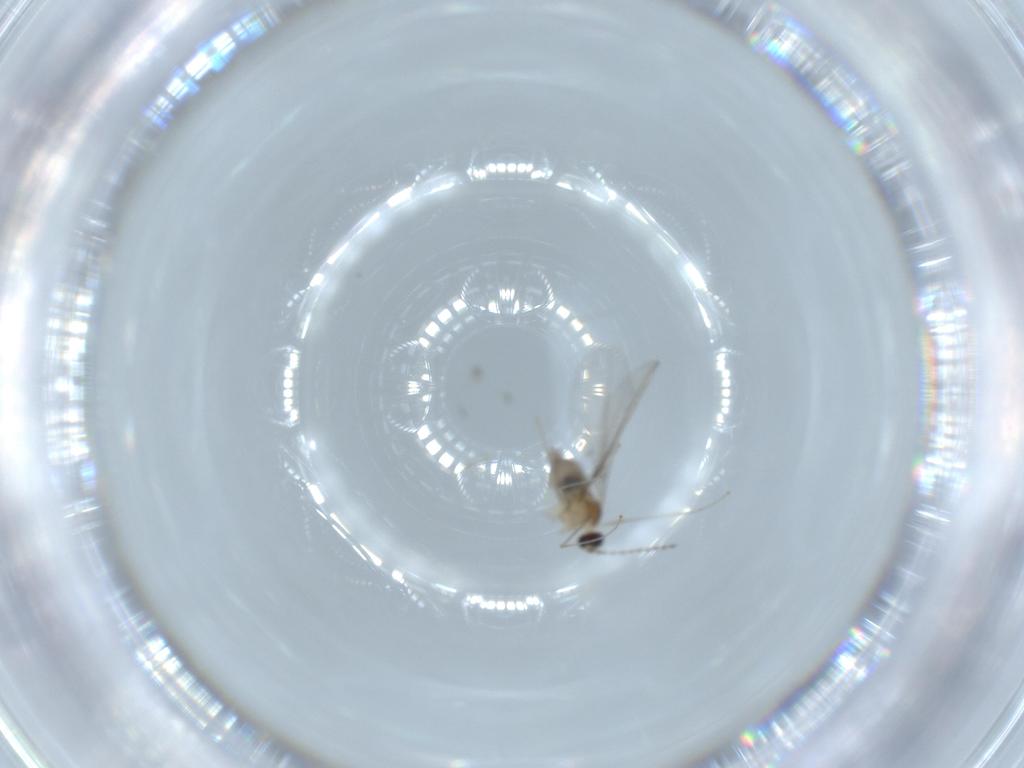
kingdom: Animalia
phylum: Arthropoda
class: Insecta
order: Diptera
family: Cecidomyiidae
